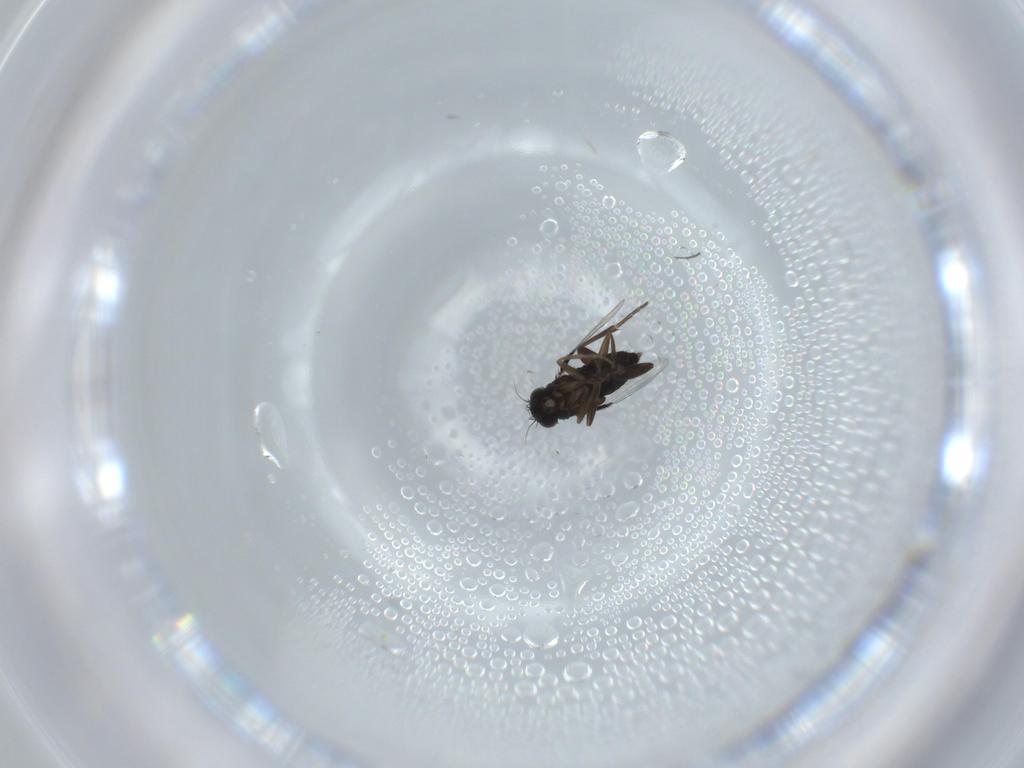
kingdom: Animalia
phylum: Arthropoda
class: Insecta
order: Diptera
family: Phoridae
